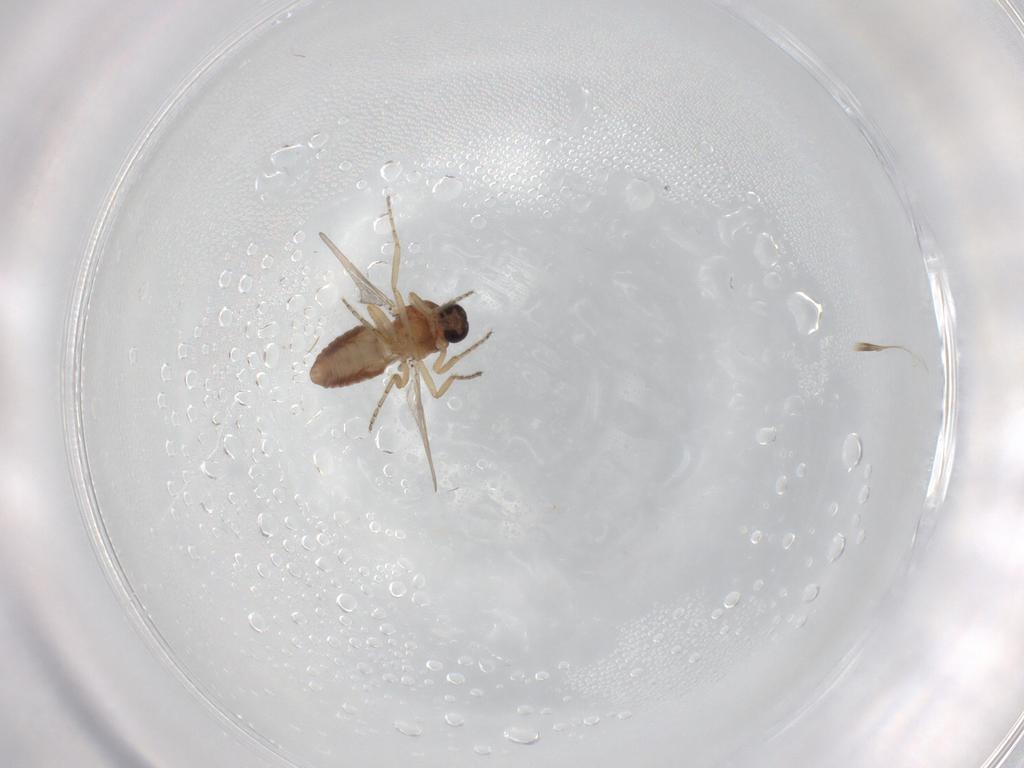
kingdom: Animalia
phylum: Arthropoda
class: Insecta
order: Diptera
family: Ceratopogonidae
